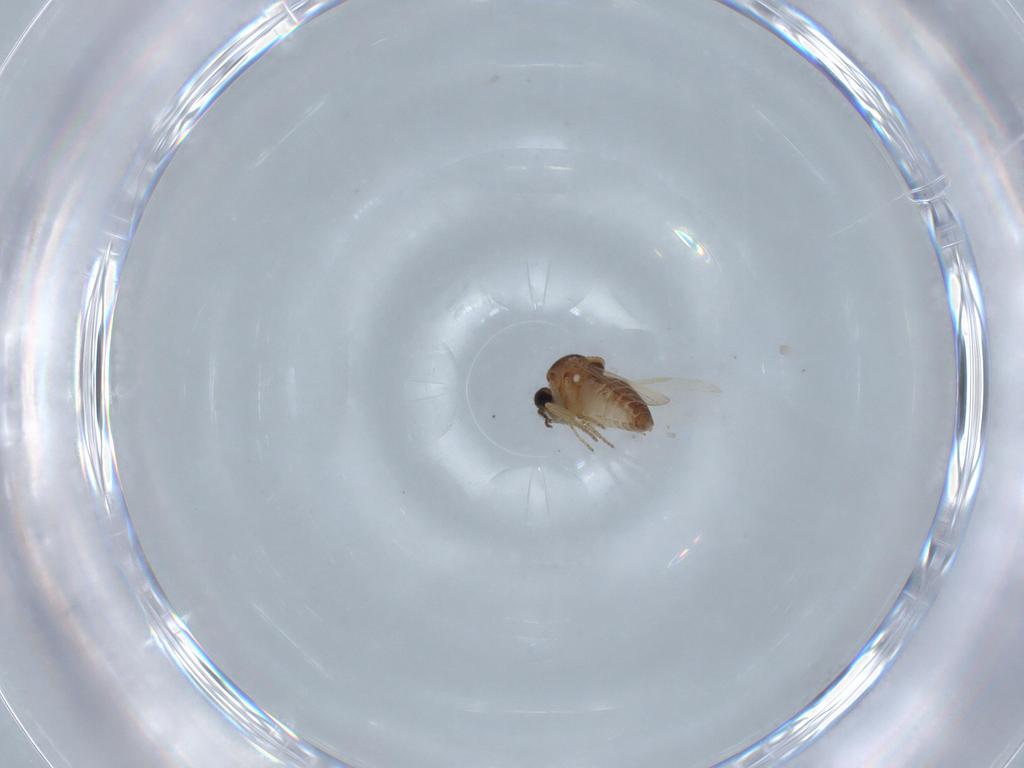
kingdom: Animalia
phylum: Arthropoda
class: Insecta
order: Diptera
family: Ceratopogonidae
